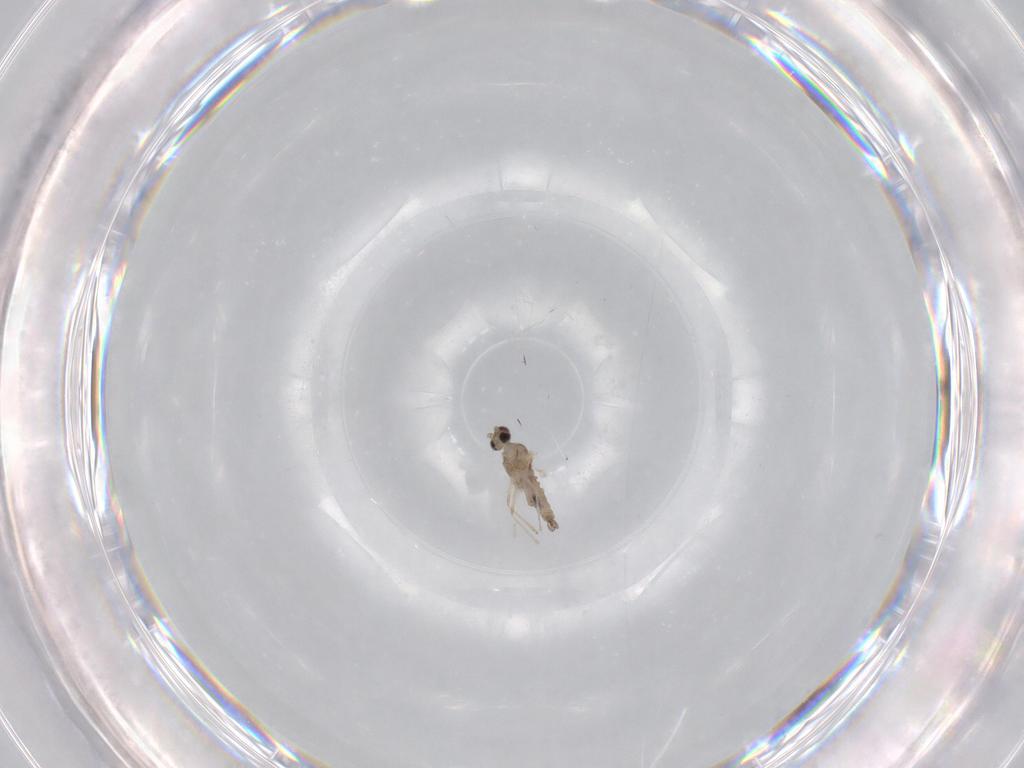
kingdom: Animalia
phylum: Arthropoda
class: Insecta
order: Diptera
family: Cecidomyiidae
